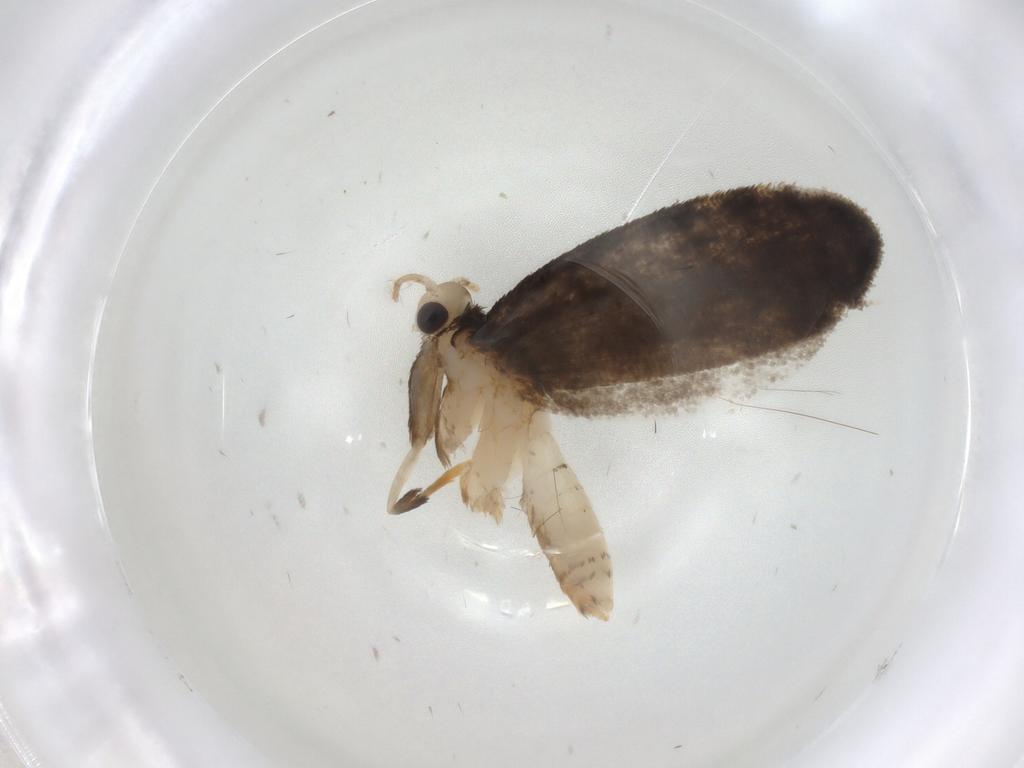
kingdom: Animalia
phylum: Arthropoda
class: Insecta
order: Lepidoptera
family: Psychidae
